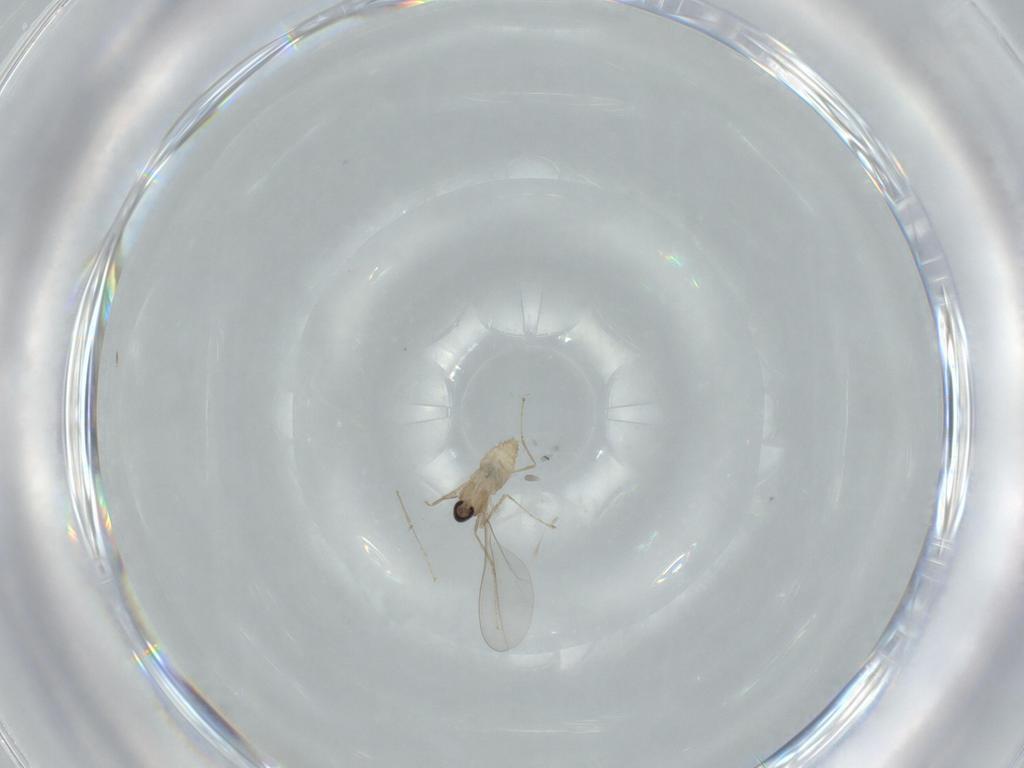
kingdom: Animalia
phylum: Arthropoda
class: Insecta
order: Diptera
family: Cecidomyiidae
